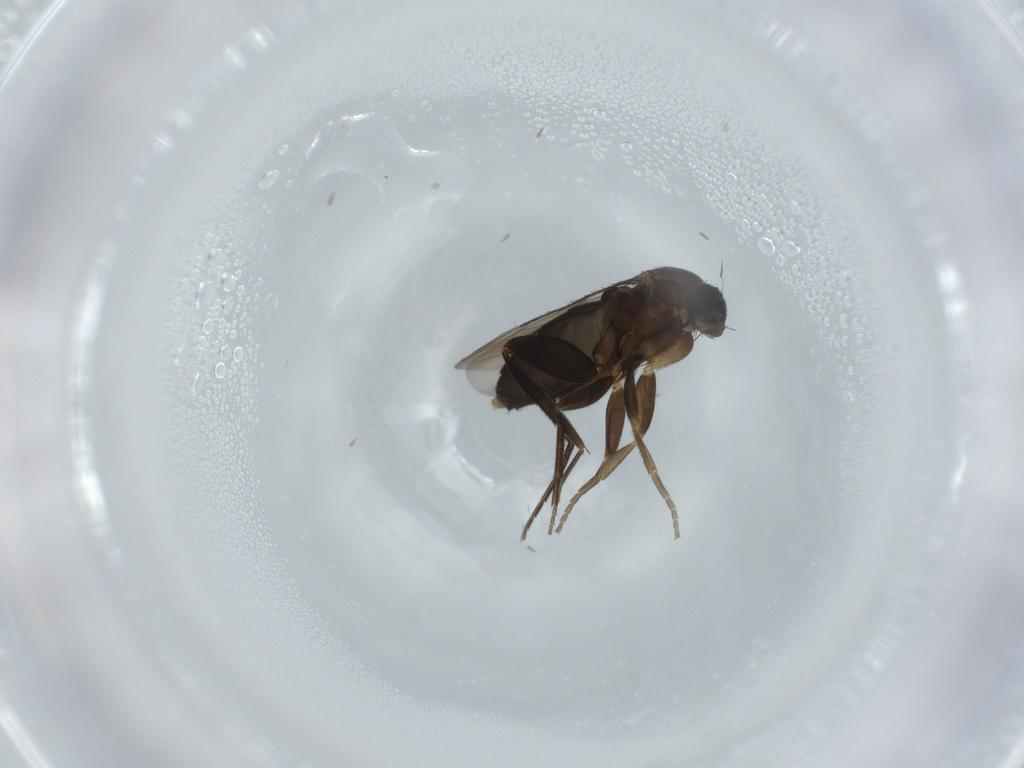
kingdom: Animalia
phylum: Arthropoda
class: Insecta
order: Diptera
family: Phoridae
